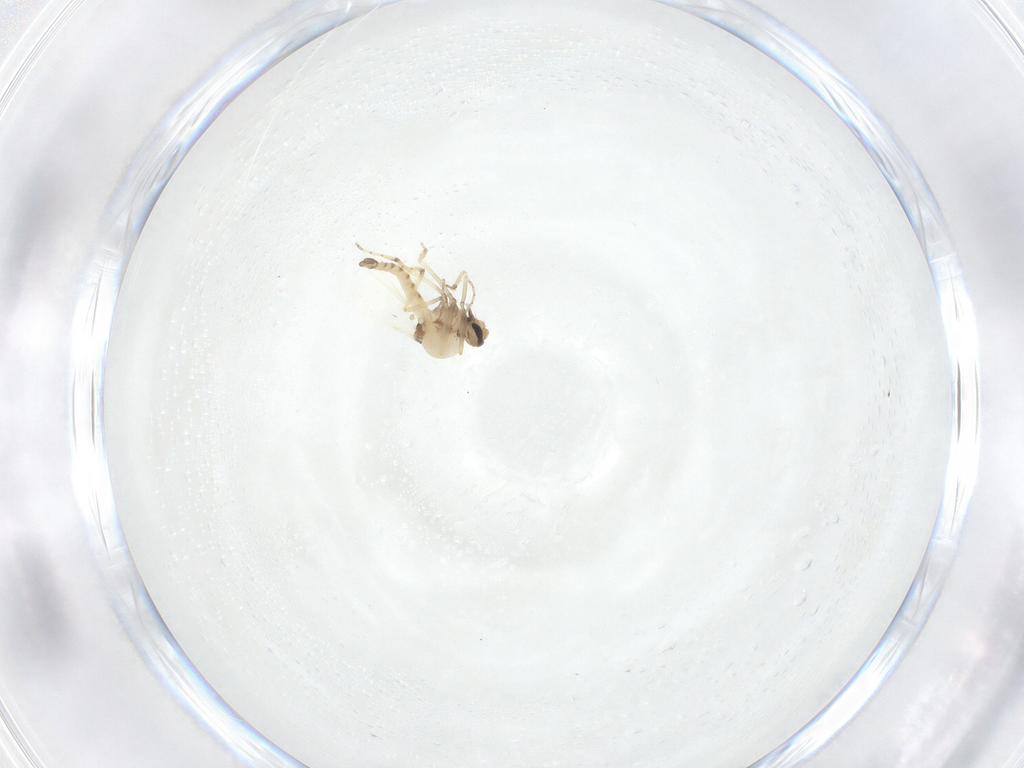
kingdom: Animalia
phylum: Arthropoda
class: Insecta
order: Diptera
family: Ceratopogonidae
